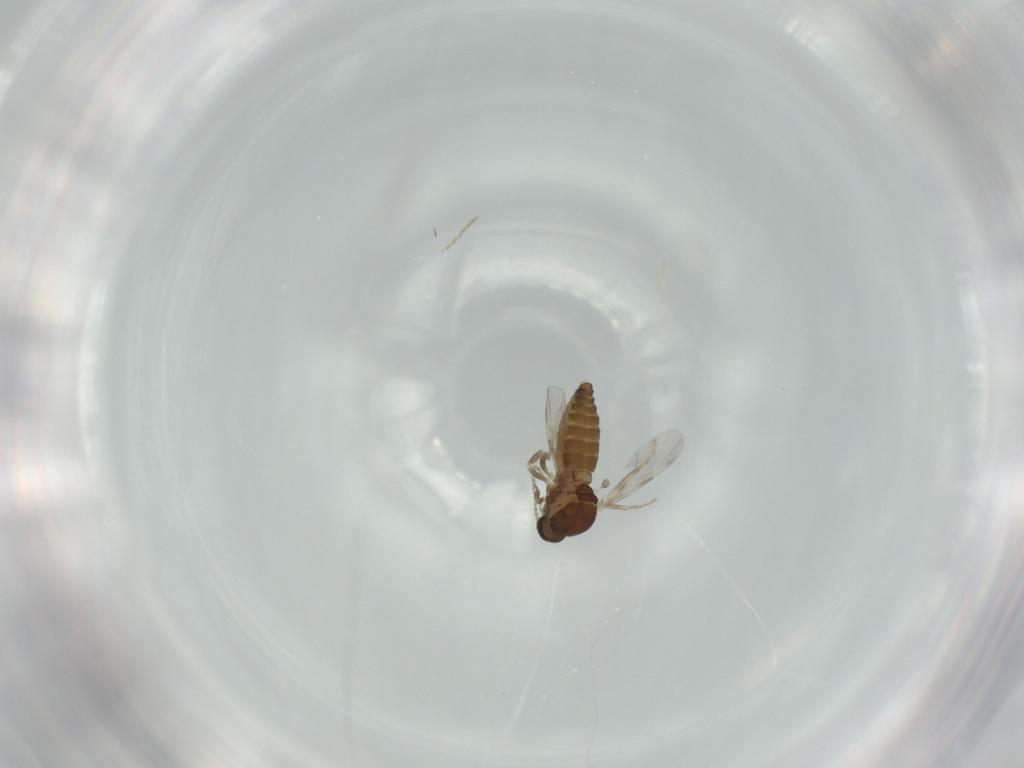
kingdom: Animalia
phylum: Arthropoda
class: Insecta
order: Diptera
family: Ceratopogonidae
